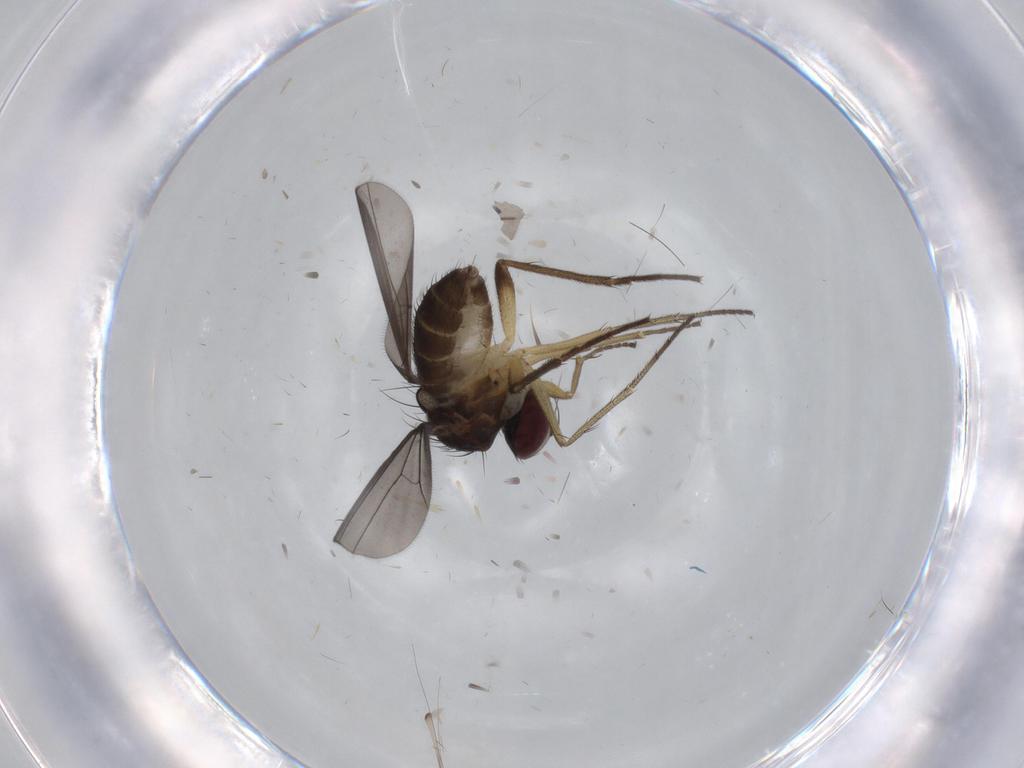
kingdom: Animalia
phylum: Arthropoda
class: Insecta
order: Diptera
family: Dolichopodidae
